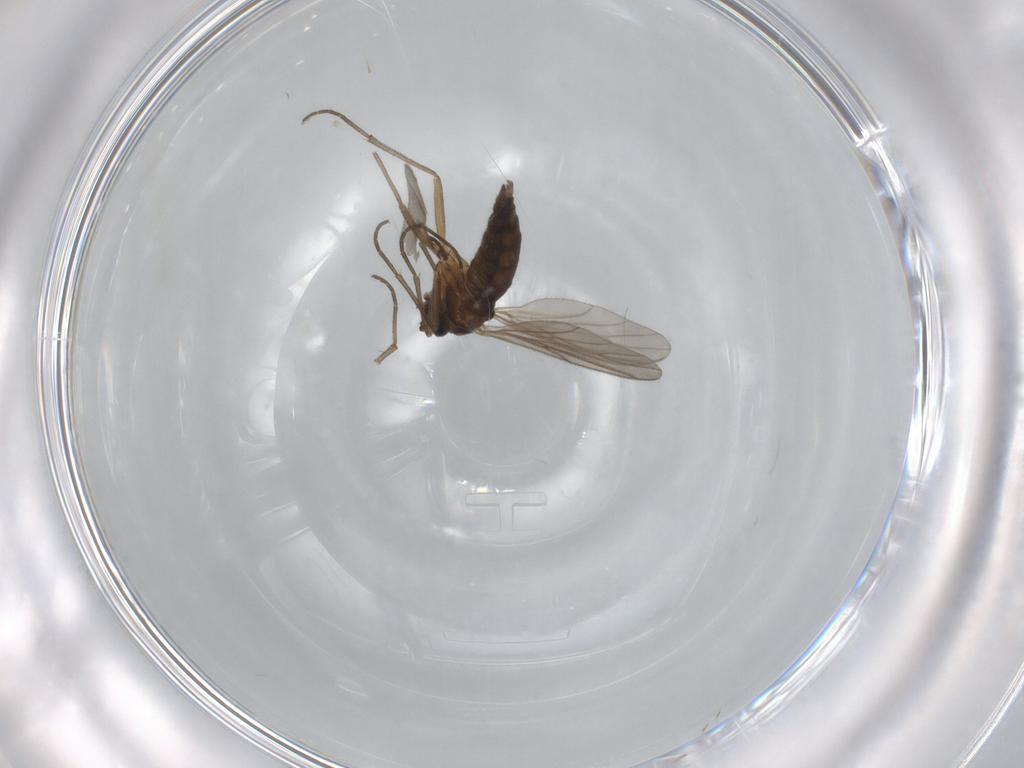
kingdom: Animalia
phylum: Arthropoda
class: Insecta
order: Diptera
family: Sciaridae
